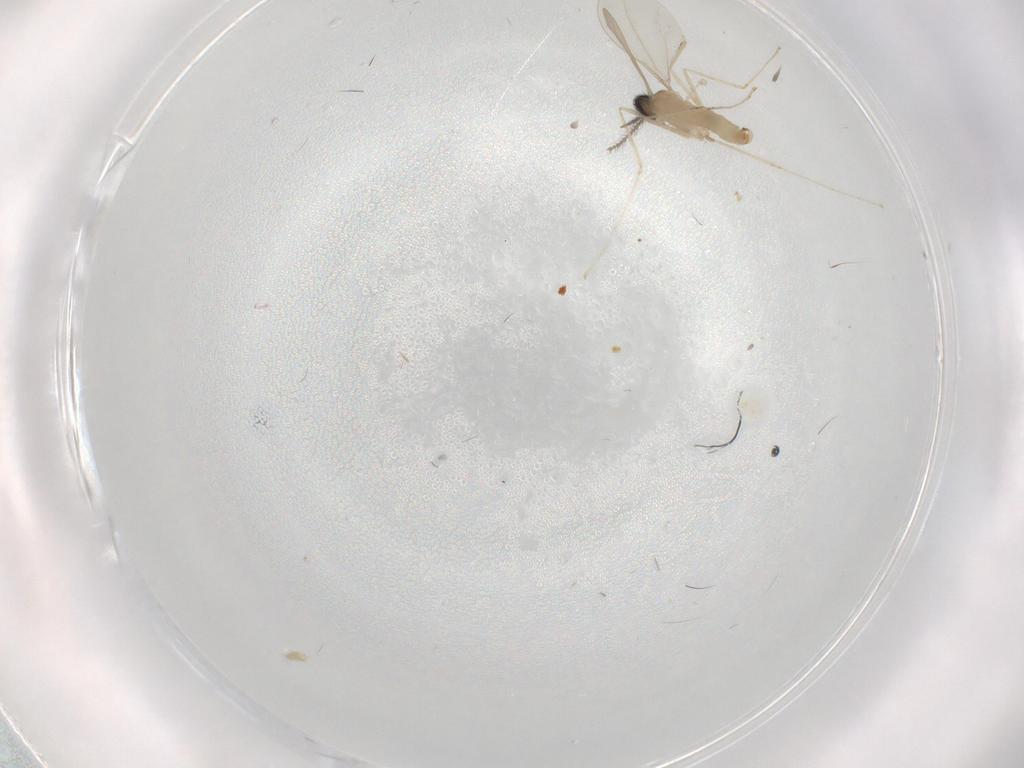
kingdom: Animalia
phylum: Arthropoda
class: Insecta
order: Diptera
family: Cecidomyiidae
